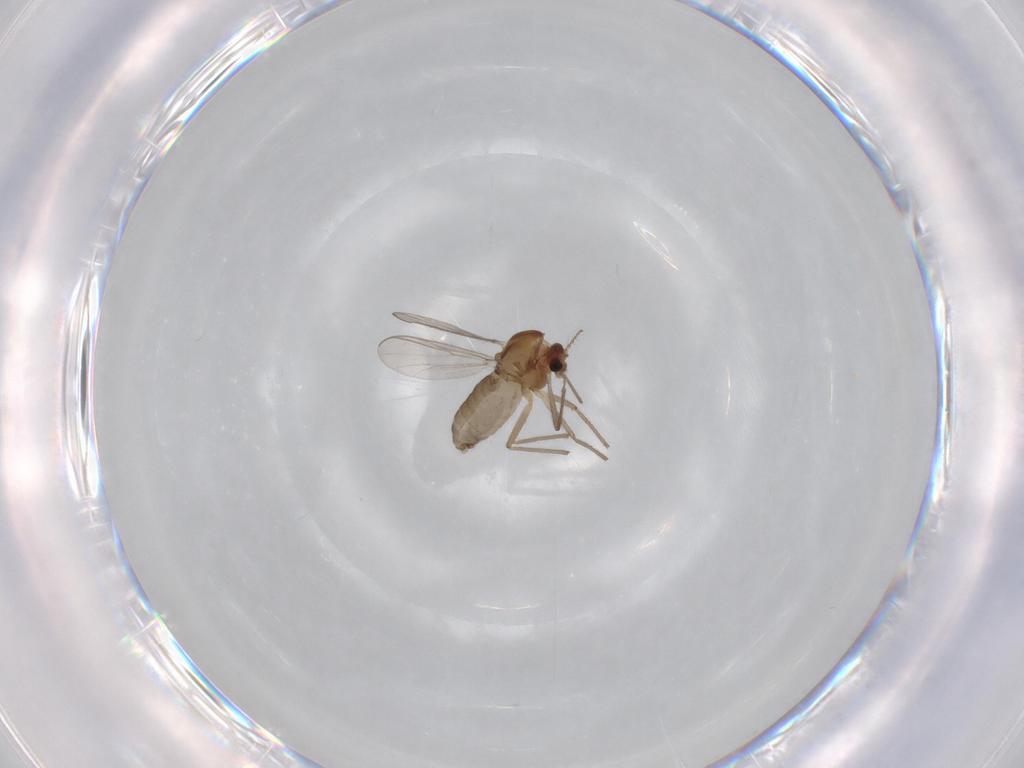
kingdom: Animalia
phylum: Arthropoda
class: Insecta
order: Diptera
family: Chironomidae
